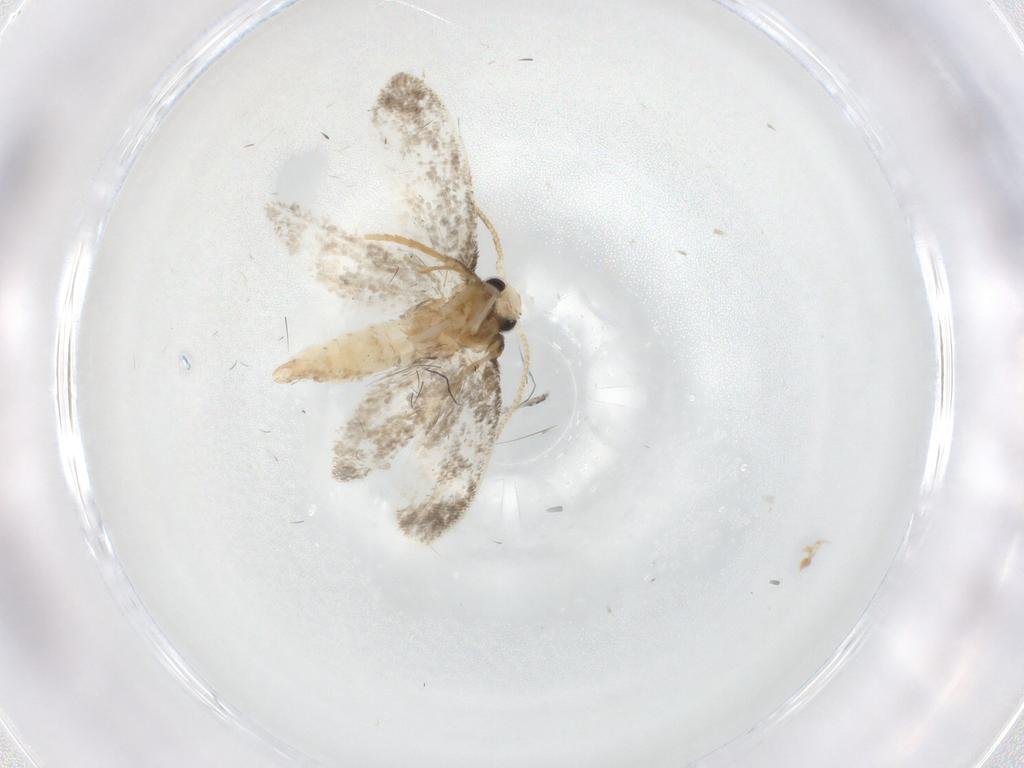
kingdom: Animalia
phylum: Arthropoda
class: Insecta
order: Lepidoptera
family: Psychidae
